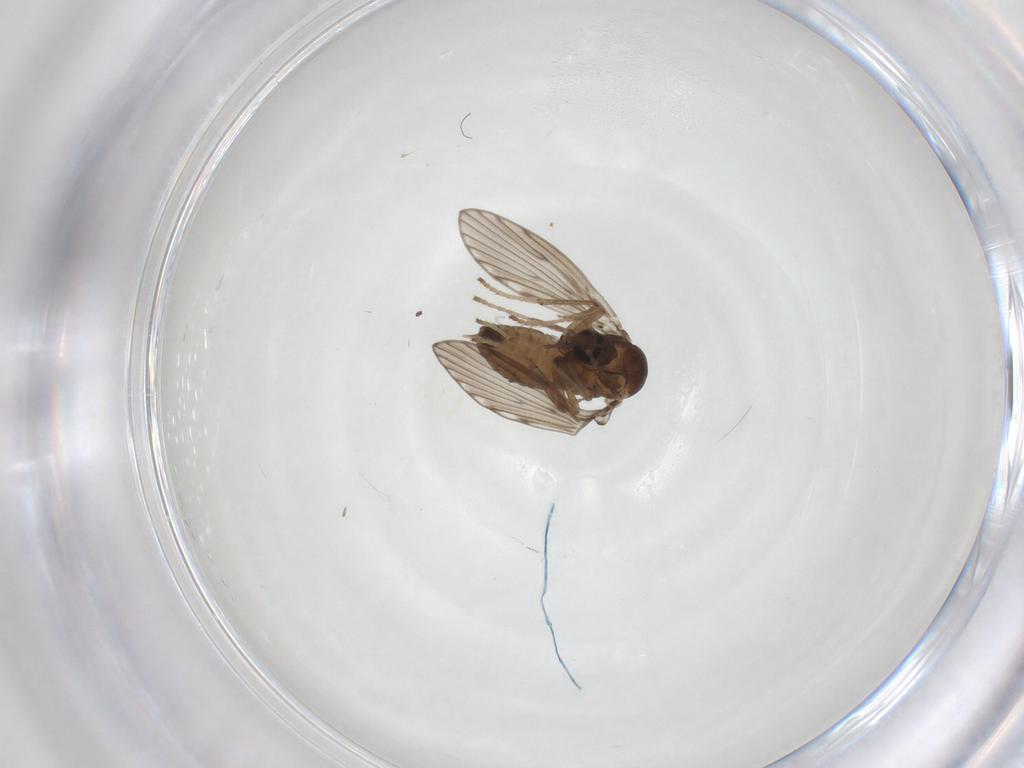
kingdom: Animalia
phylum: Arthropoda
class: Insecta
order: Diptera
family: Psychodidae
